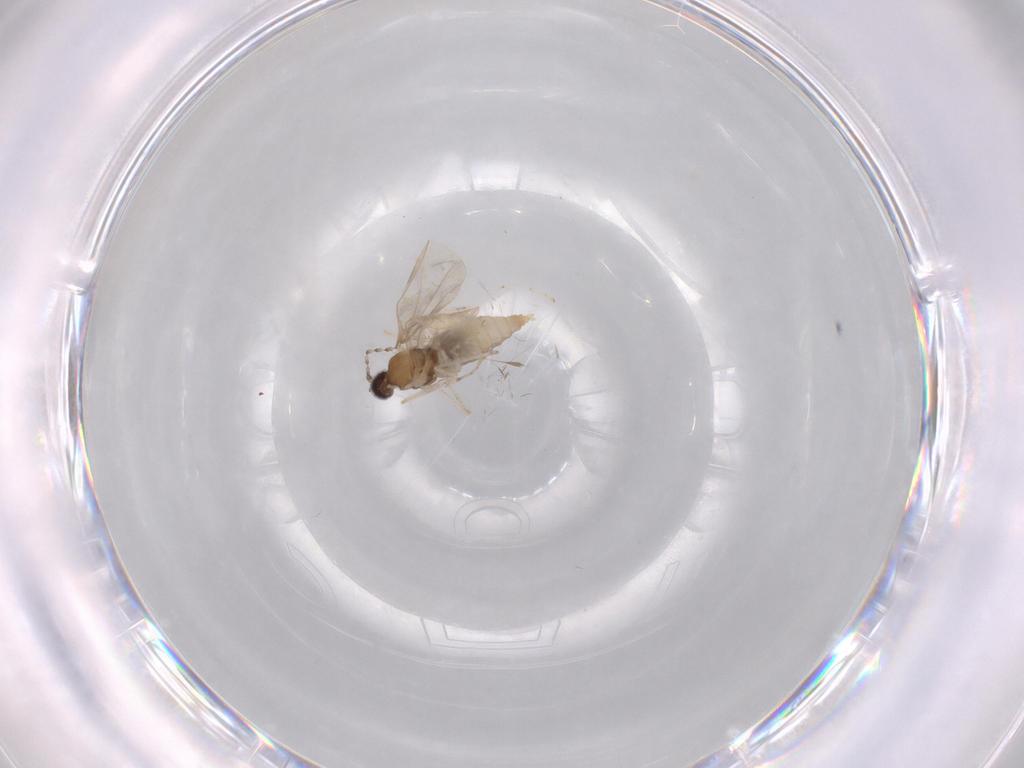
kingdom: Animalia
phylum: Arthropoda
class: Insecta
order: Diptera
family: Cecidomyiidae
